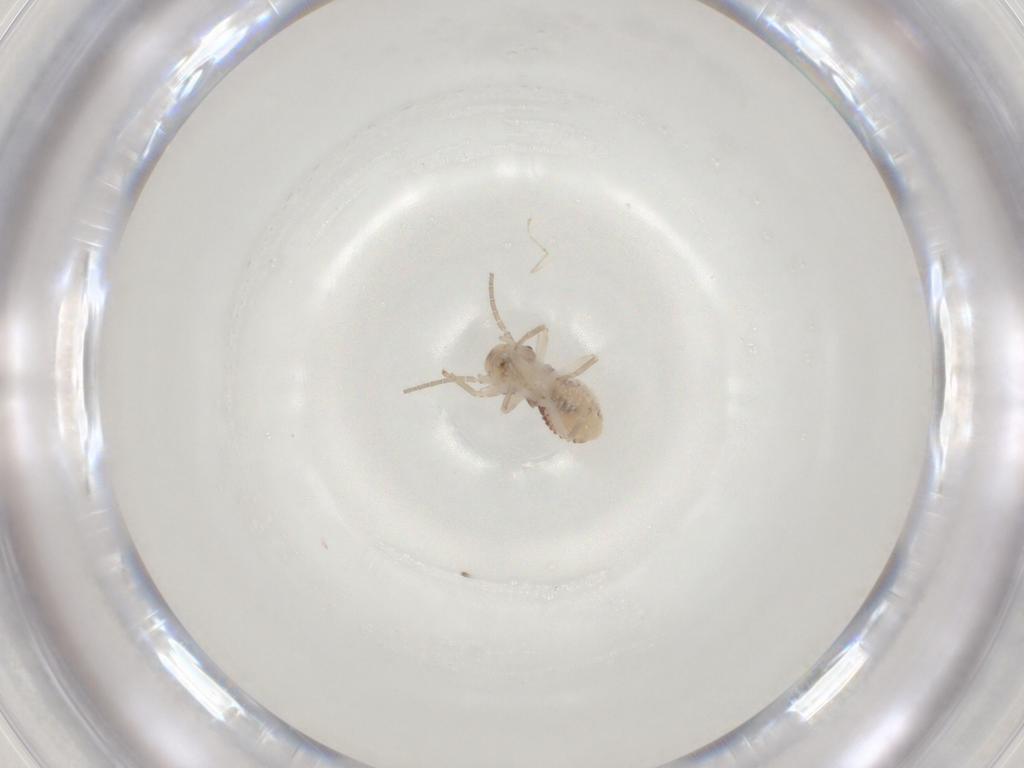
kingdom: Animalia
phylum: Arthropoda
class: Insecta
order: Psocodea
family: Psocidae
